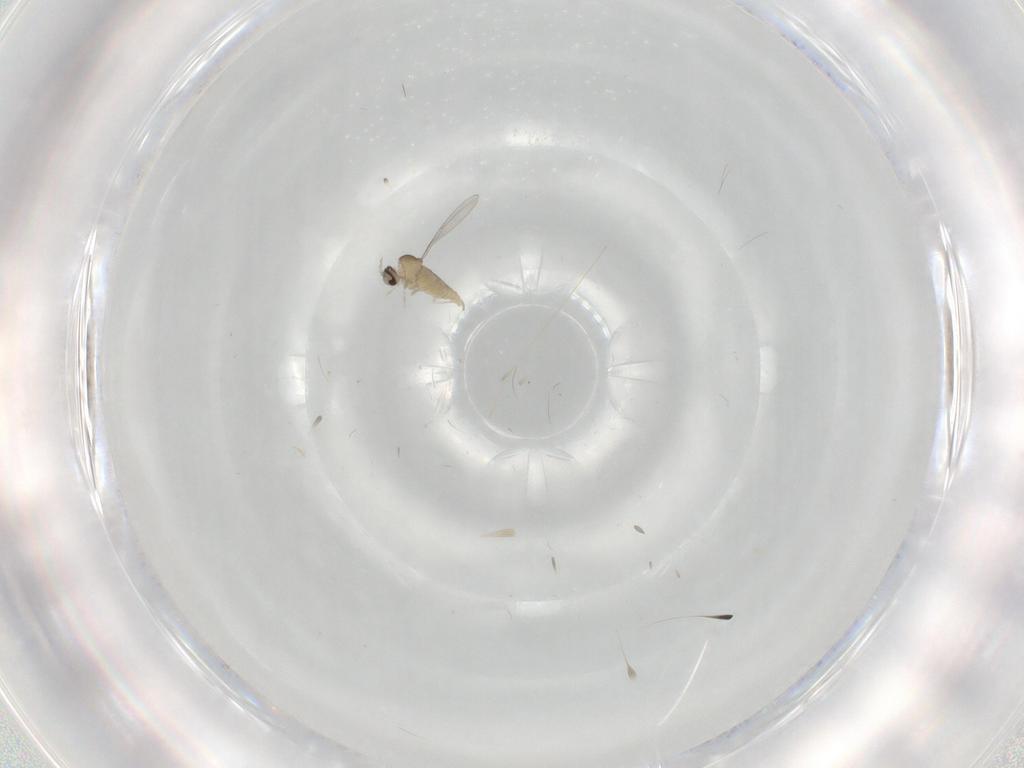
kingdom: Animalia
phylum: Arthropoda
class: Insecta
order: Diptera
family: Cecidomyiidae
